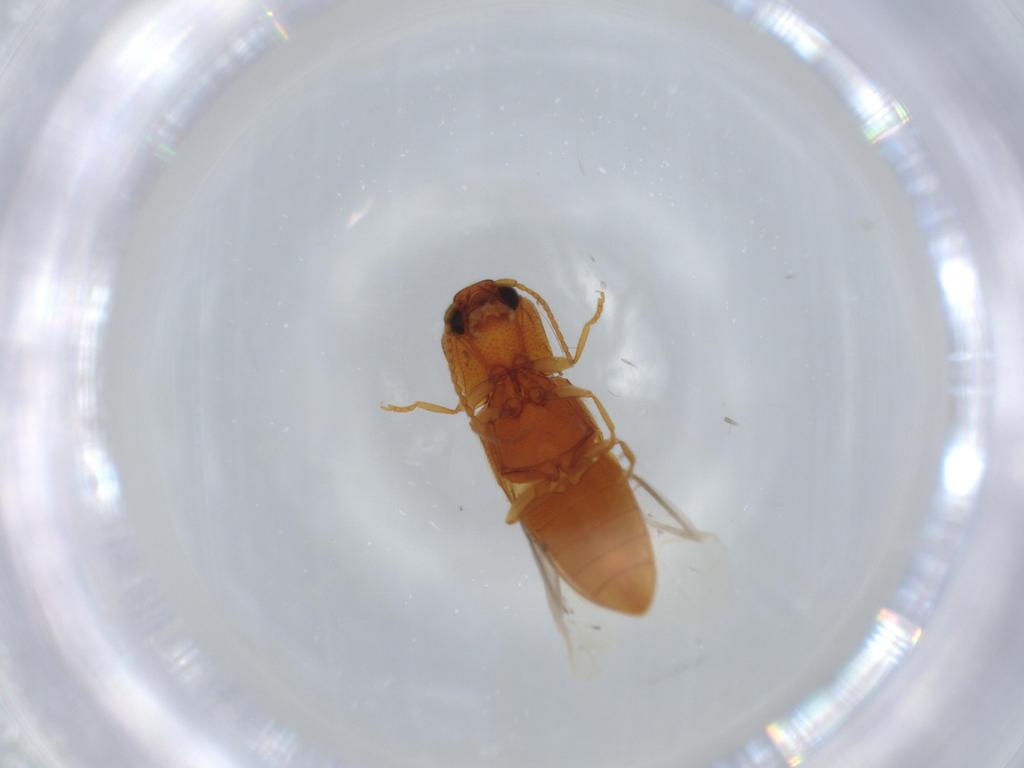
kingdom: Animalia
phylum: Arthropoda
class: Insecta
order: Coleoptera
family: Elateridae
